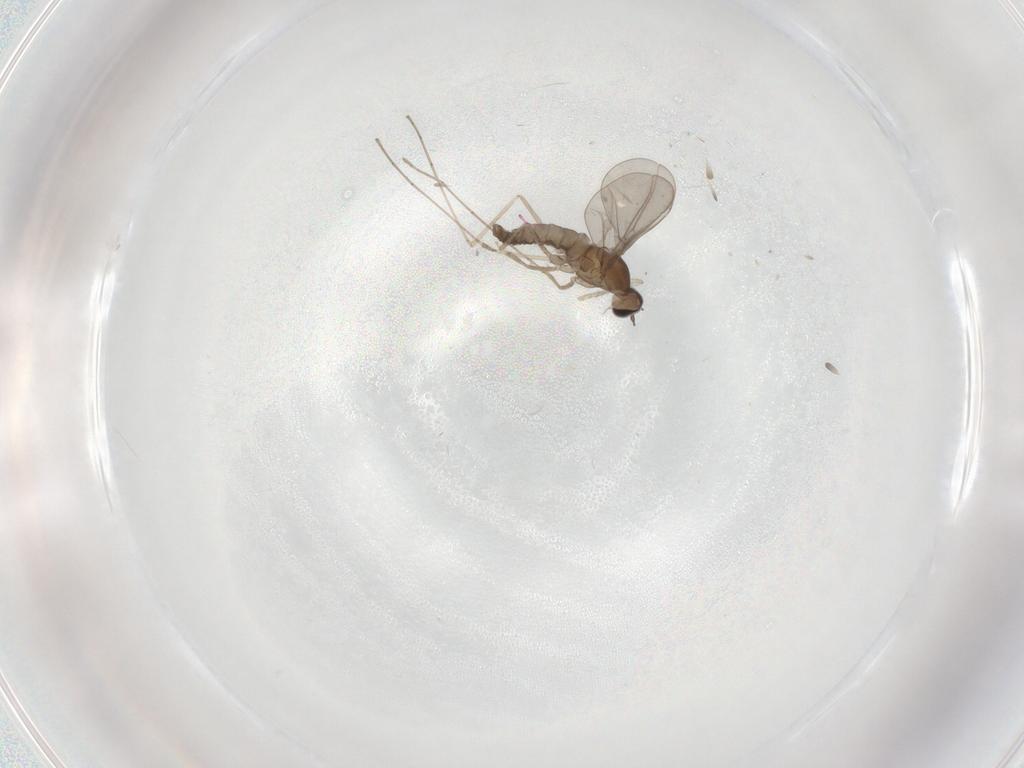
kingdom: Animalia
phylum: Arthropoda
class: Insecta
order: Diptera
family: Cecidomyiidae
